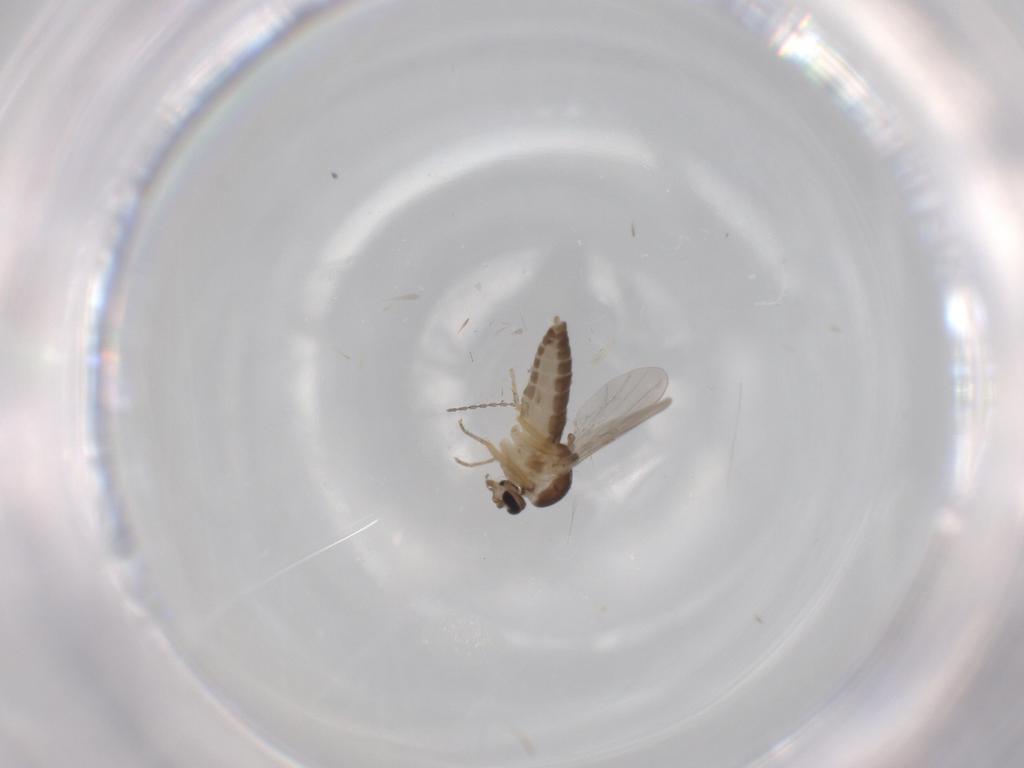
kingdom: Animalia
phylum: Arthropoda
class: Insecta
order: Diptera
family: Ceratopogonidae
